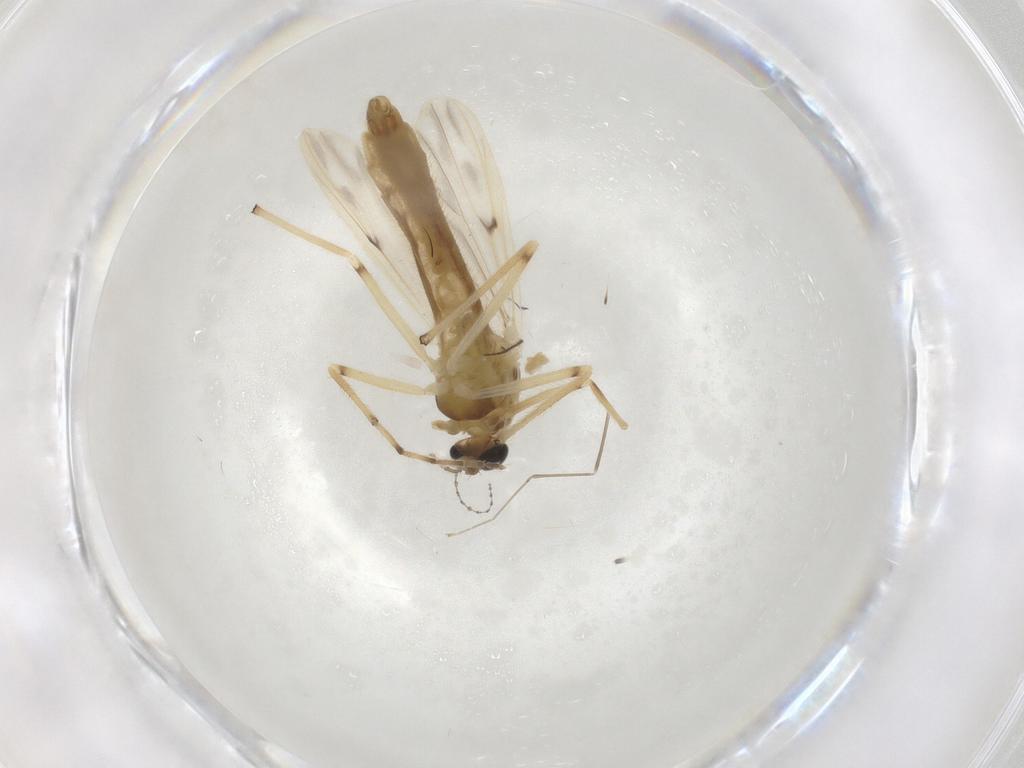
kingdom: Animalia
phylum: Arthropoda
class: Insecta
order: Diptera
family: Chironomidae
